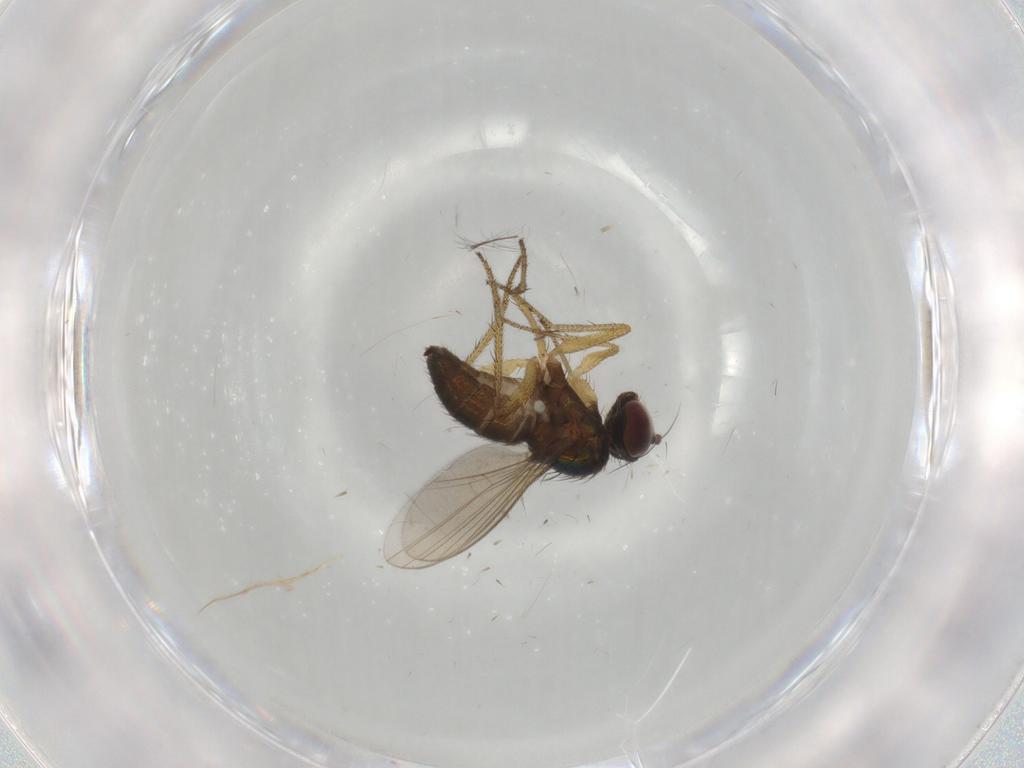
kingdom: Animalia
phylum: Arthropoda
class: Insecta
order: Diptera
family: Dolichopodidae
